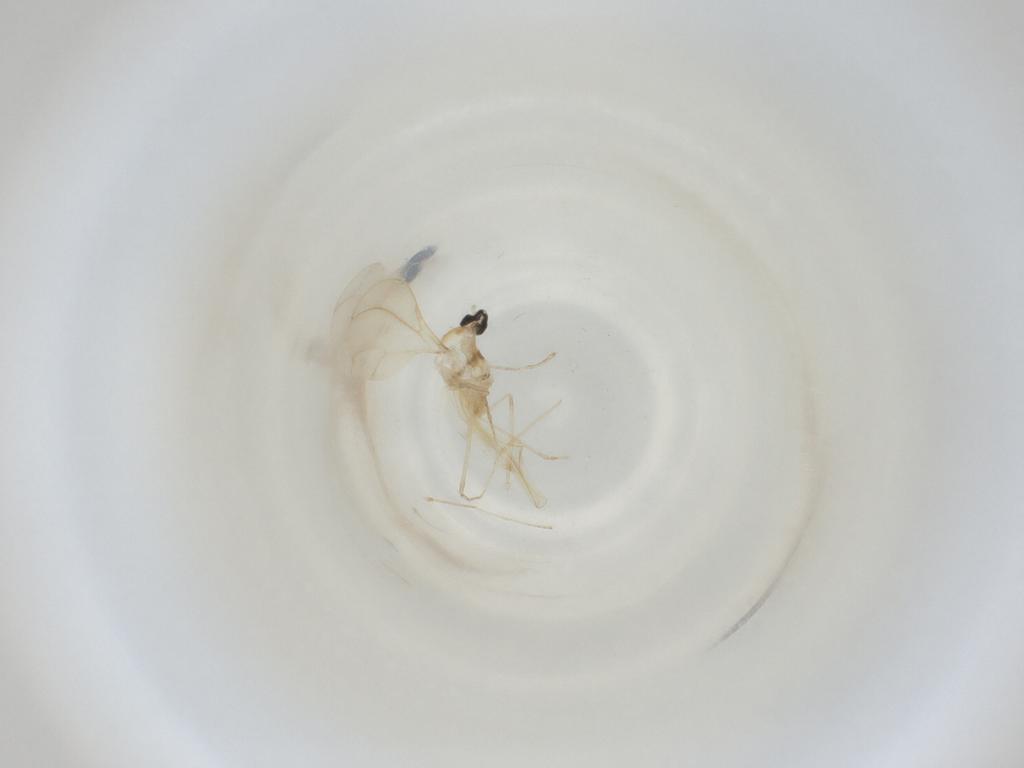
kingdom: Animalia
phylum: Arthropoda
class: Insecta
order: Diptera
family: Cecidomyiidae
